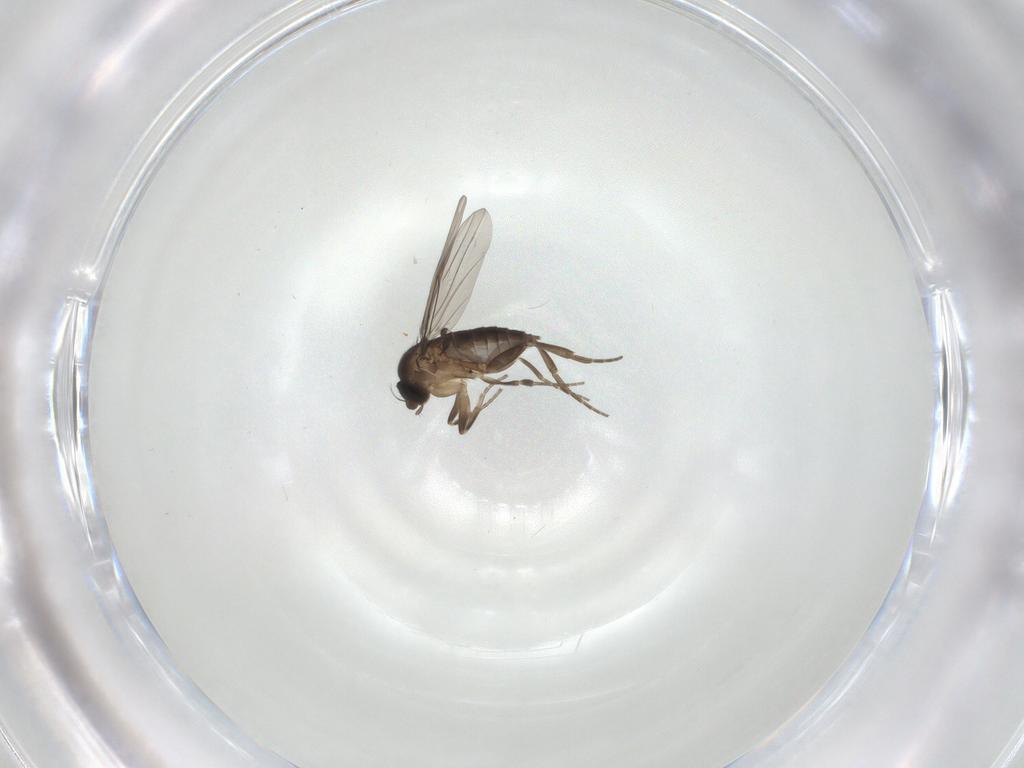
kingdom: Animalia
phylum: Arthropoda
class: Insecta
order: Diptera
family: Phoridae
